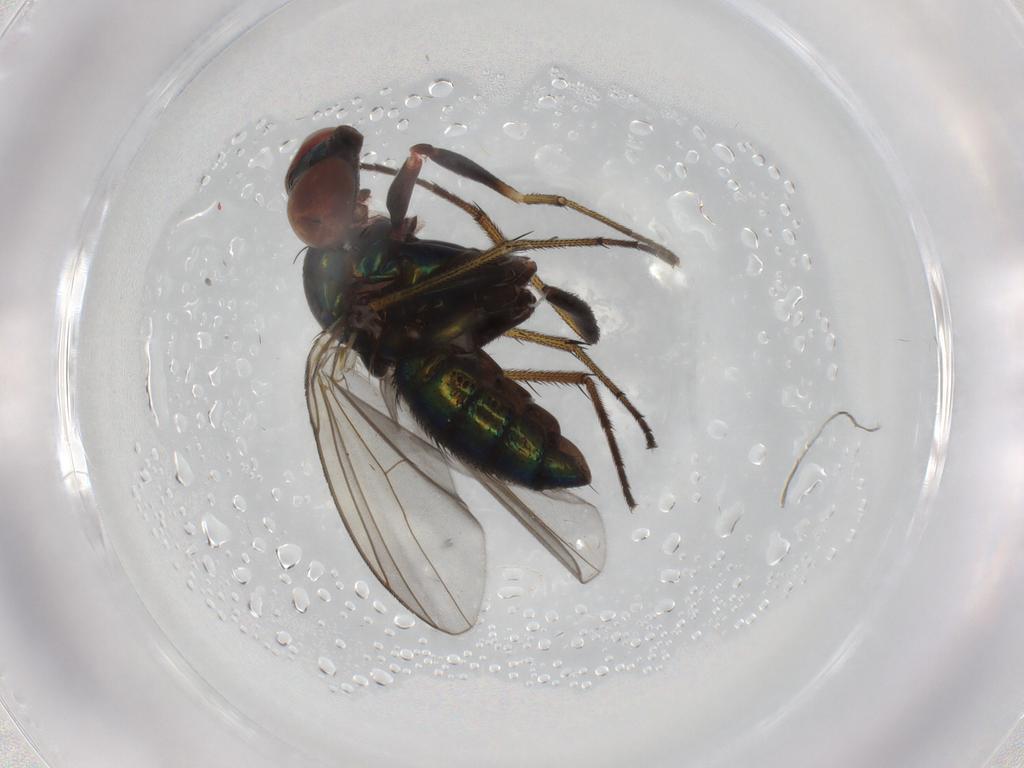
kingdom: Animalia
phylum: Arthropoda
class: Insecta
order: Diptera
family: Dolichopodidae
